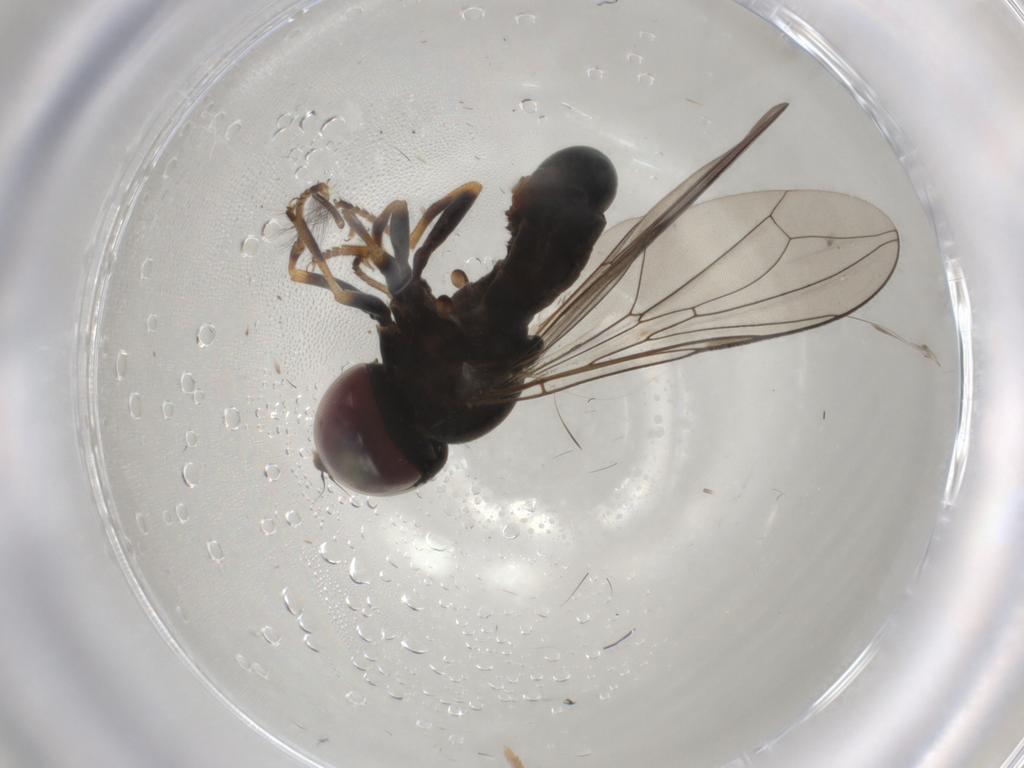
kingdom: Animalia
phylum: Arthropoda
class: Insecta
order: Diptera
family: Pipunculidae
